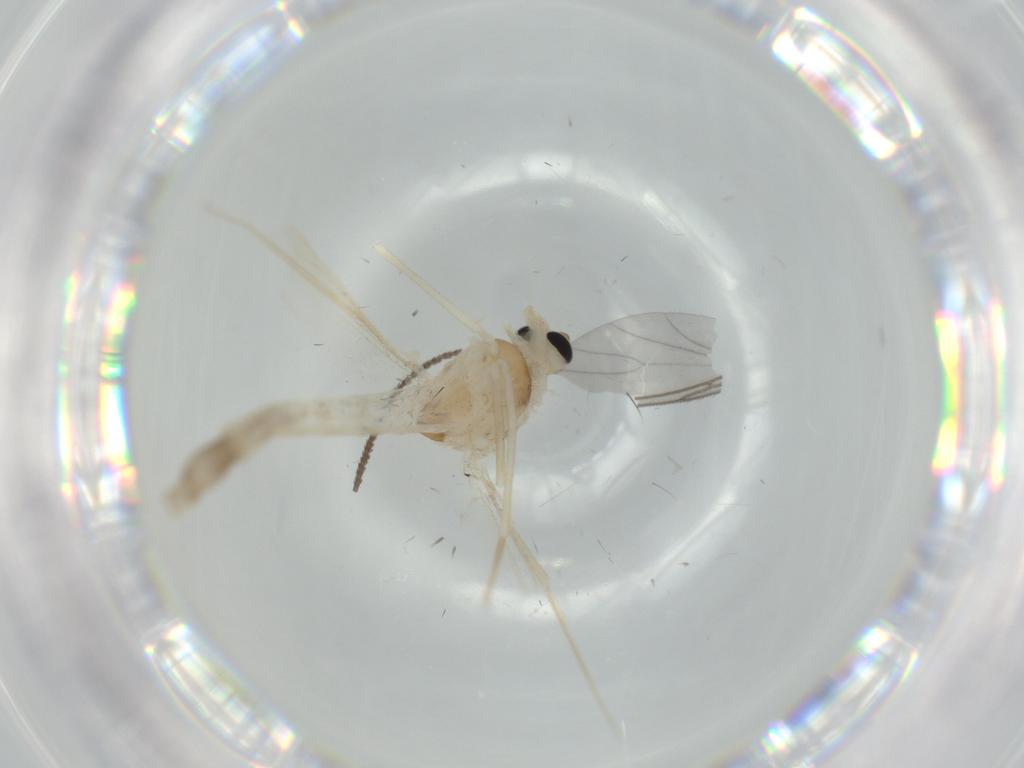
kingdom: Animalia
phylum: Arthropoda
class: Insecta
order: Diptera
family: Chironomidae
